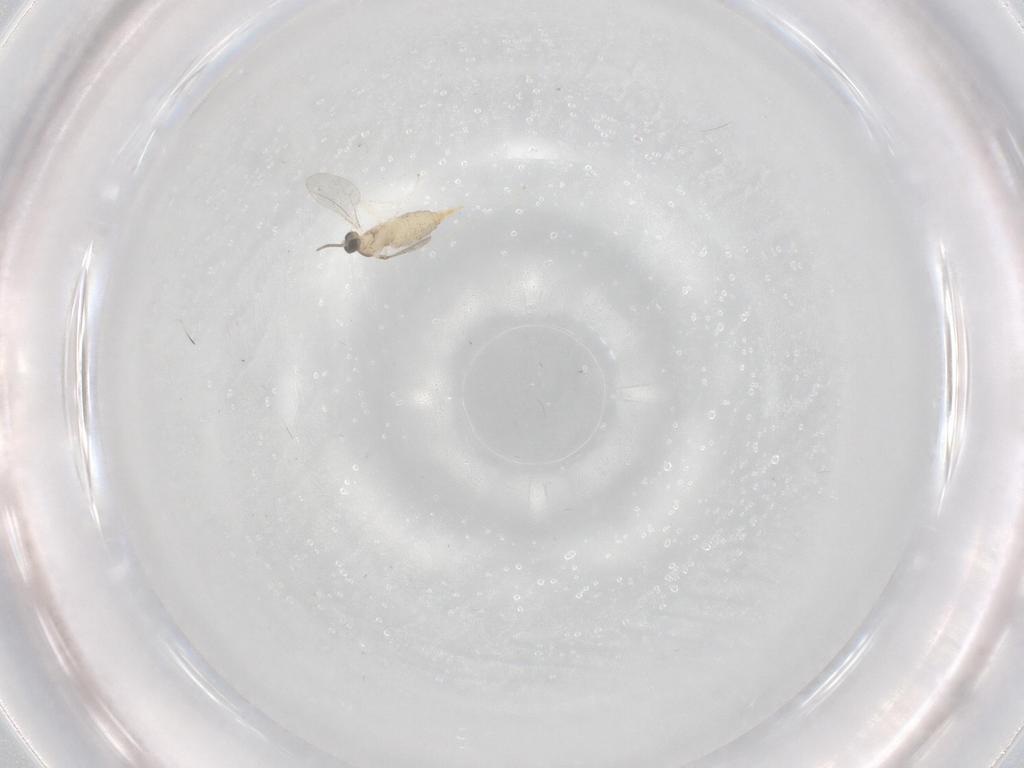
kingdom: Animalia
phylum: Arthropoda
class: Insecta
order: Diptera
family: Cecidomyiidae
